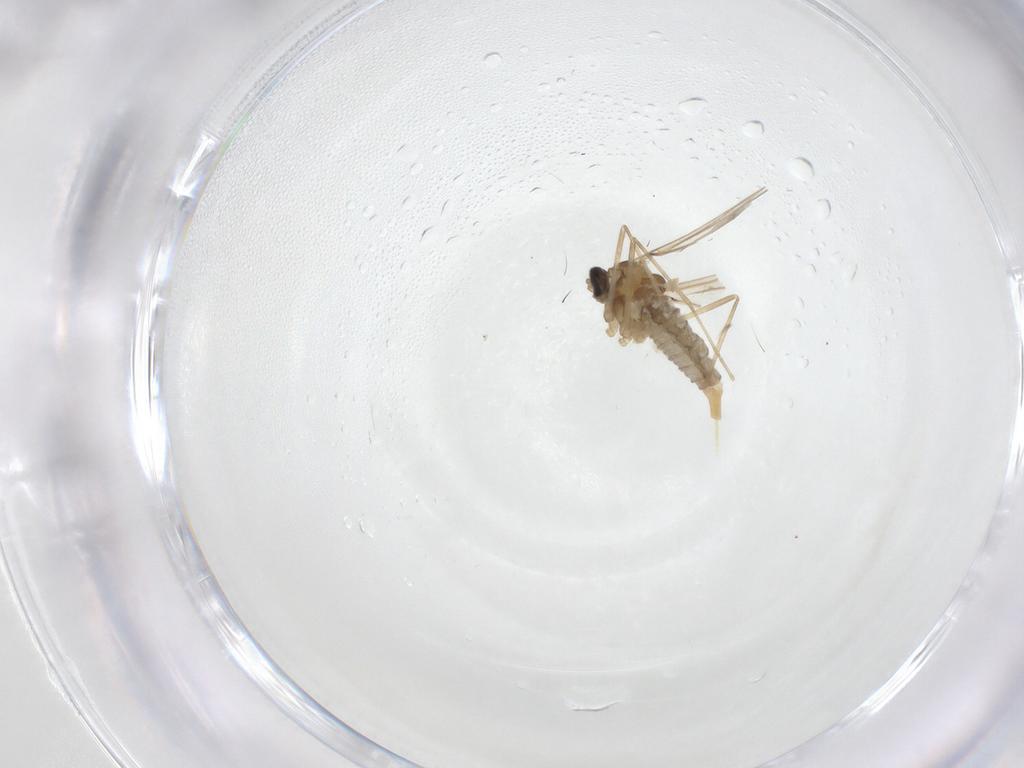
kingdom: Animalia
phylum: Arthropoda
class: Insecta
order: Diptera
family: Cecidomyiidae
